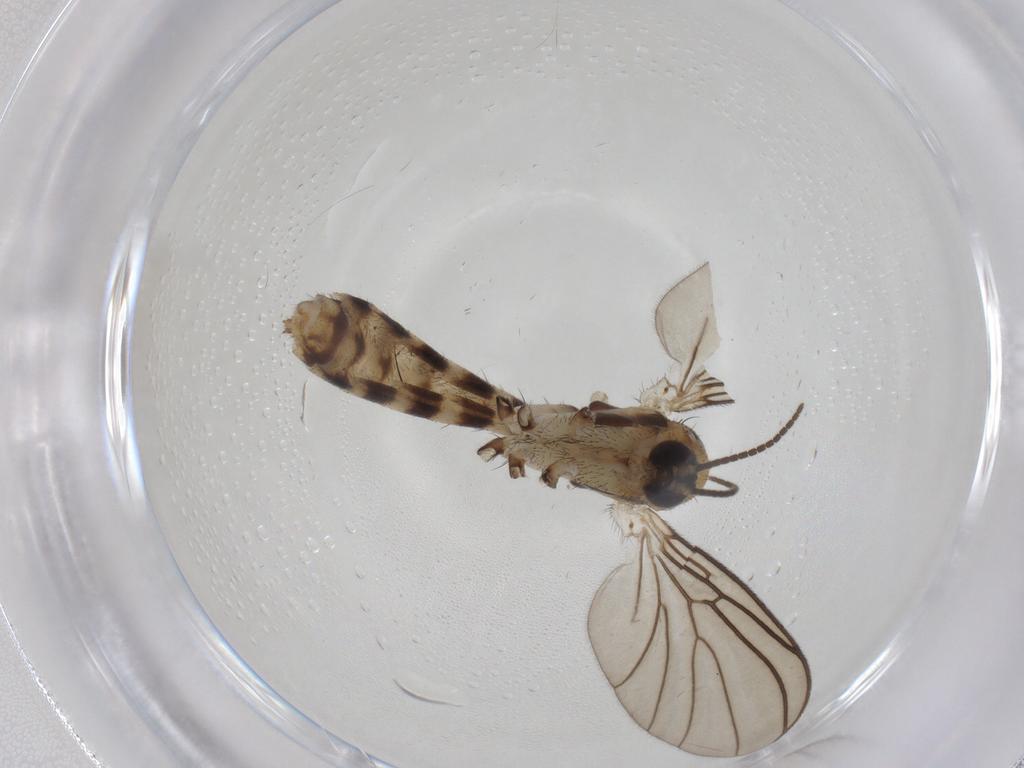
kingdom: Animalia
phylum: Arthropoda
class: Insecta
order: Diptera
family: Mycetophilidae
